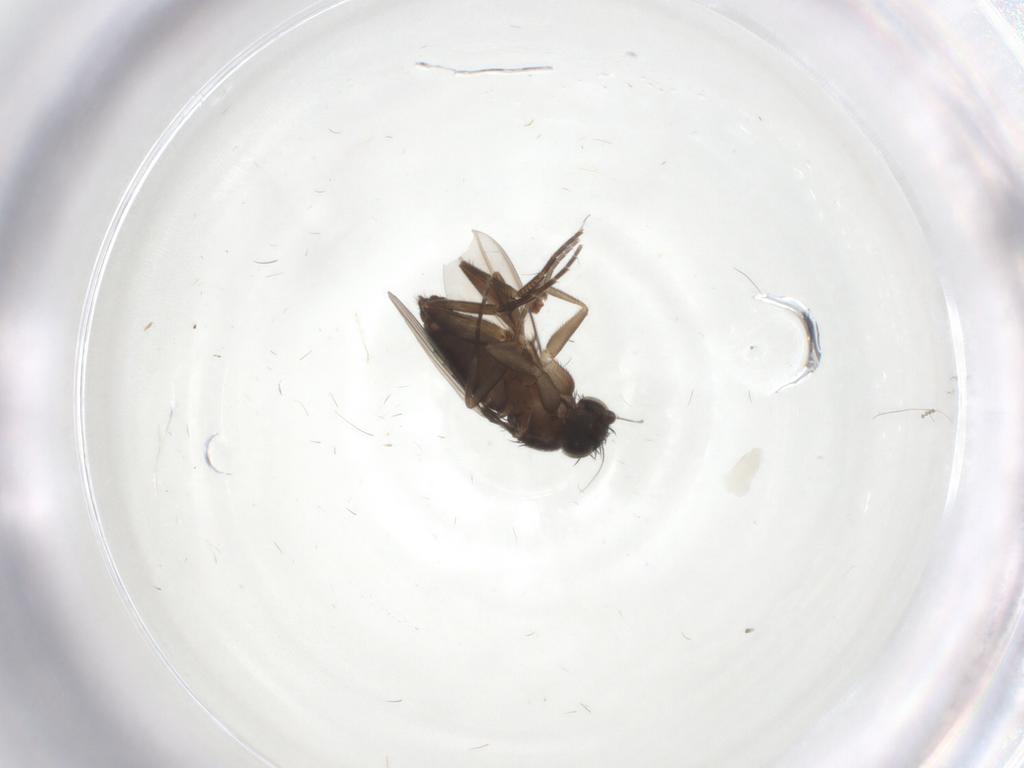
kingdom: Animalia
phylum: Arthropoda
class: Insecta
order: Diptera
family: Phoridae
